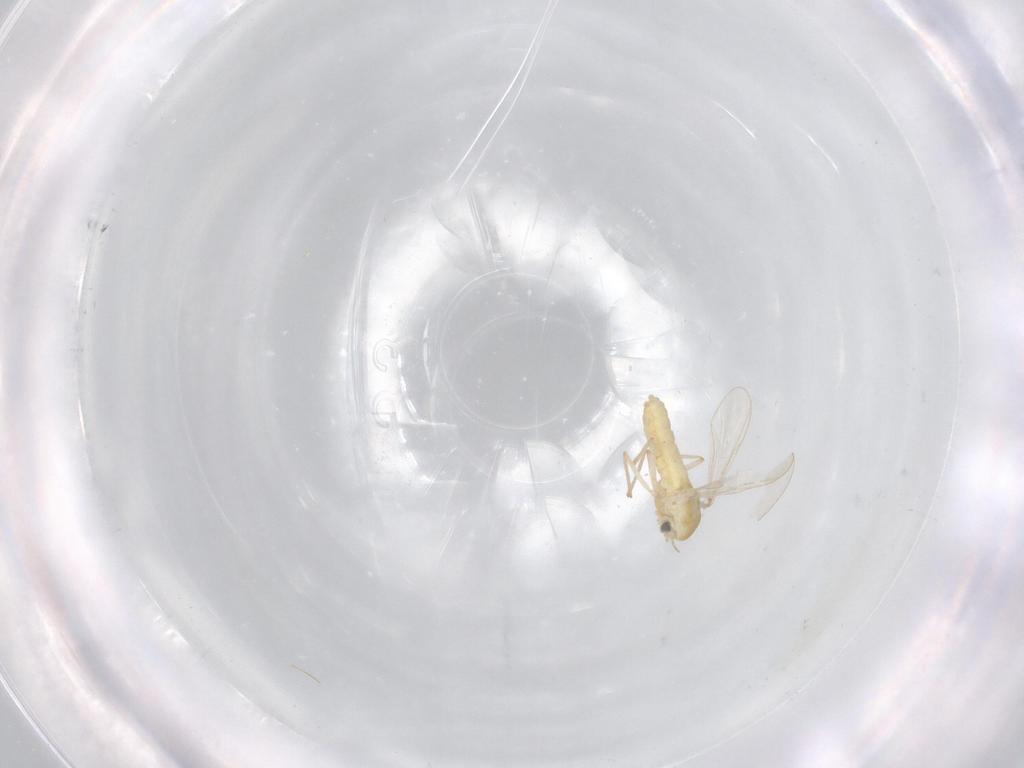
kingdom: Animalia
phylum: Arthropoda
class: Insecta
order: Diptera
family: Chironomidae
